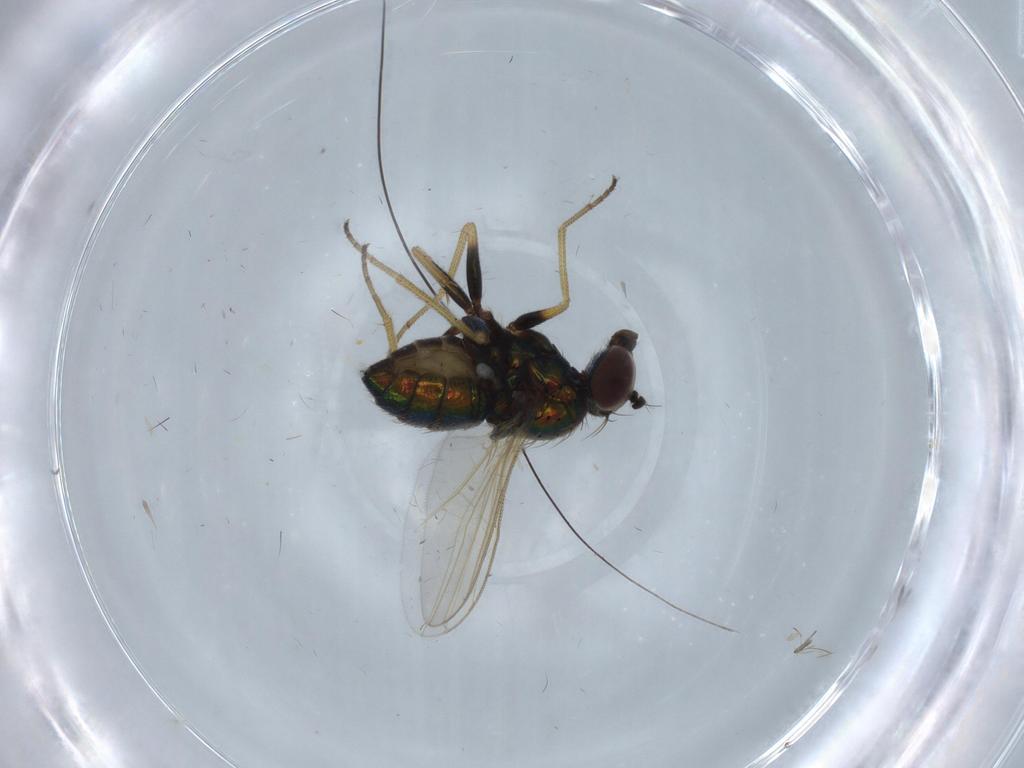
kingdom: Animalia
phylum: Arthropoda
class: Insecta
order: Diptera
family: Dolichopodidae
